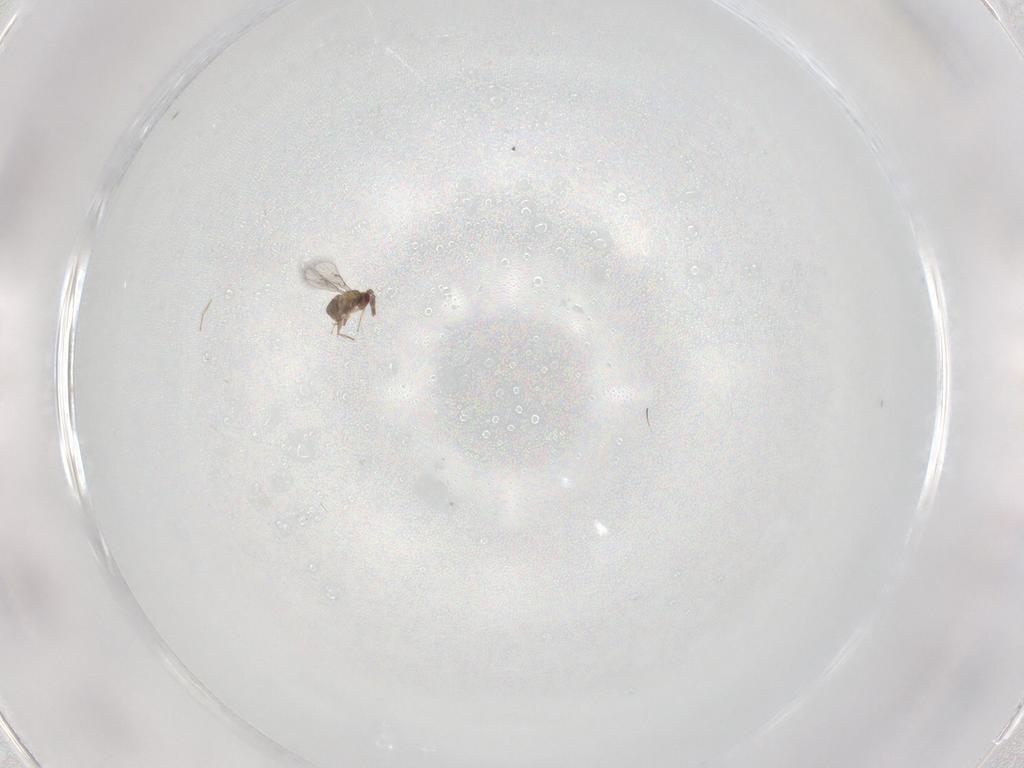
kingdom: Animalia
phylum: Arthropoda
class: Insecta
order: Hymenoptera
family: Trichogrammatidae
